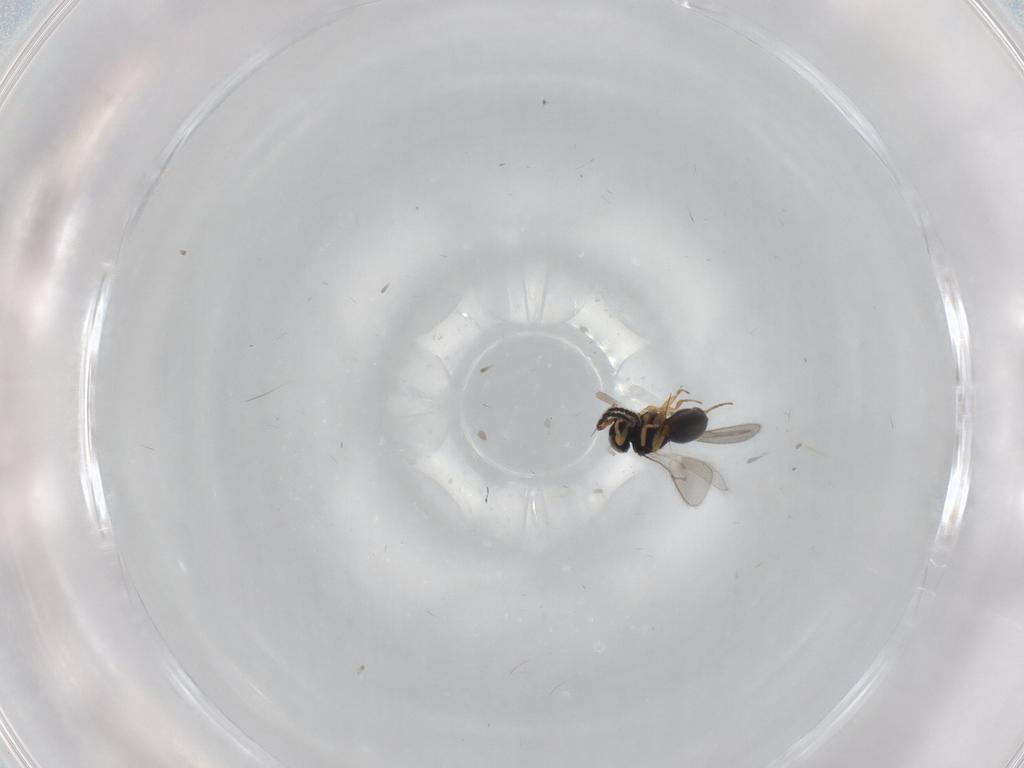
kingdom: Animalia
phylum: Arthropoda
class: Insecta
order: Hymenoptera
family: Scelionidae
